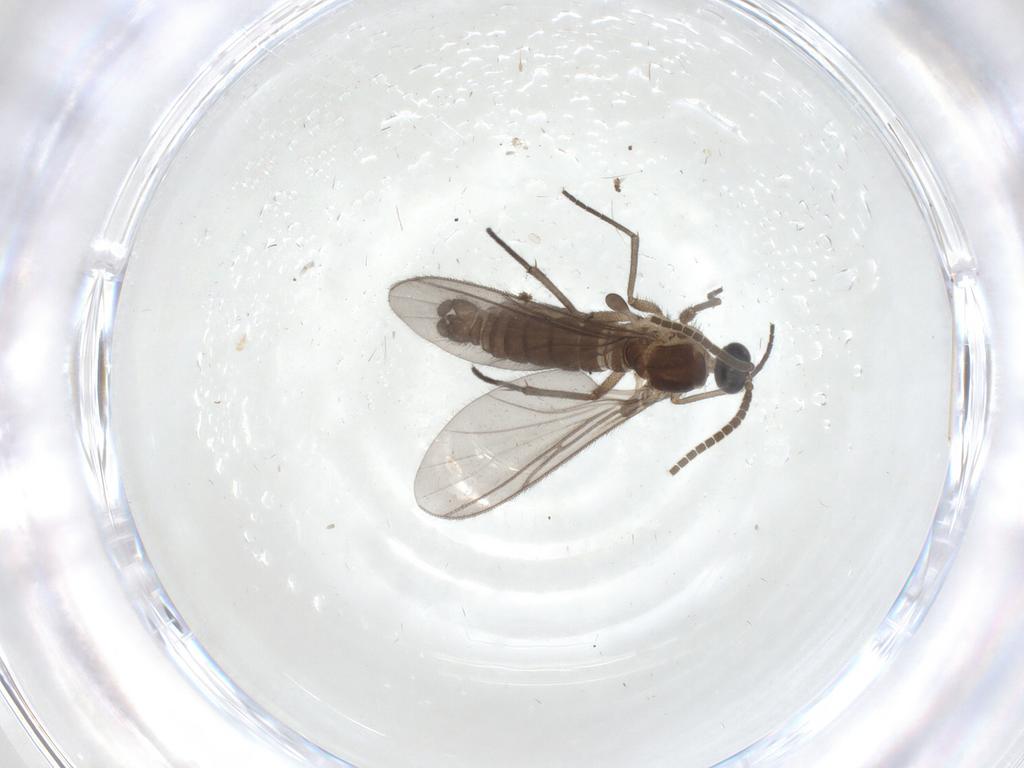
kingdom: Animalia
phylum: Arthropoda
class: Insecta
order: Diptera
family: Cecidomyiidae
